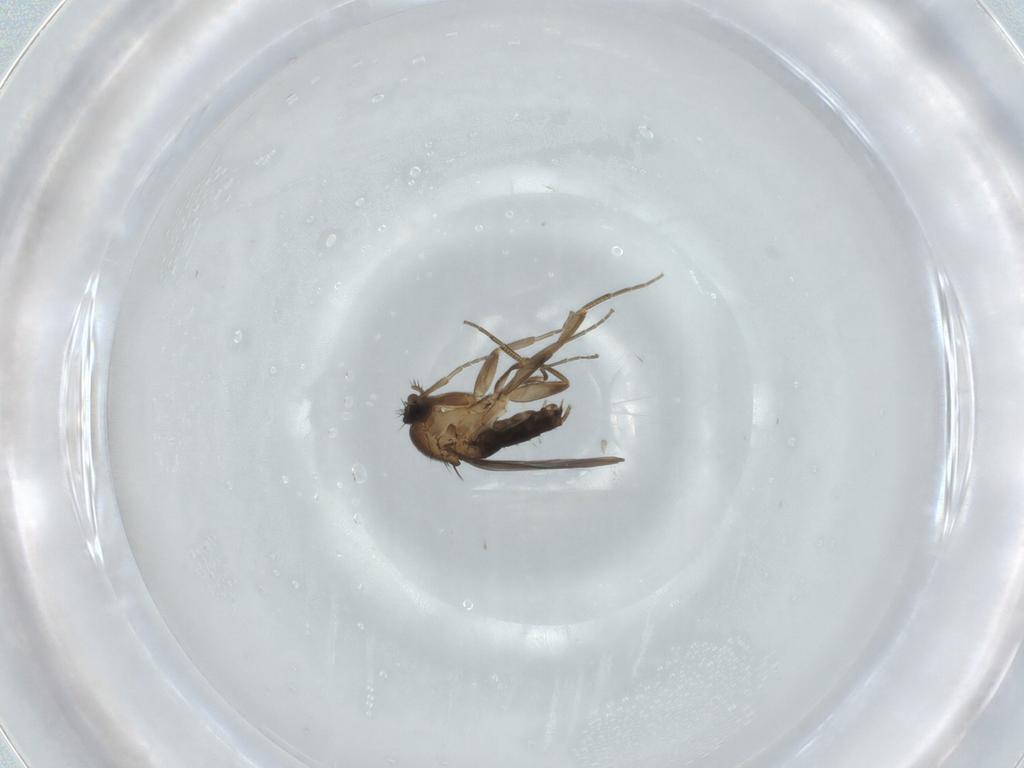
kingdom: Animalia
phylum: Arthropoda
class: Insecta
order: Diptera
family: Phoridae
